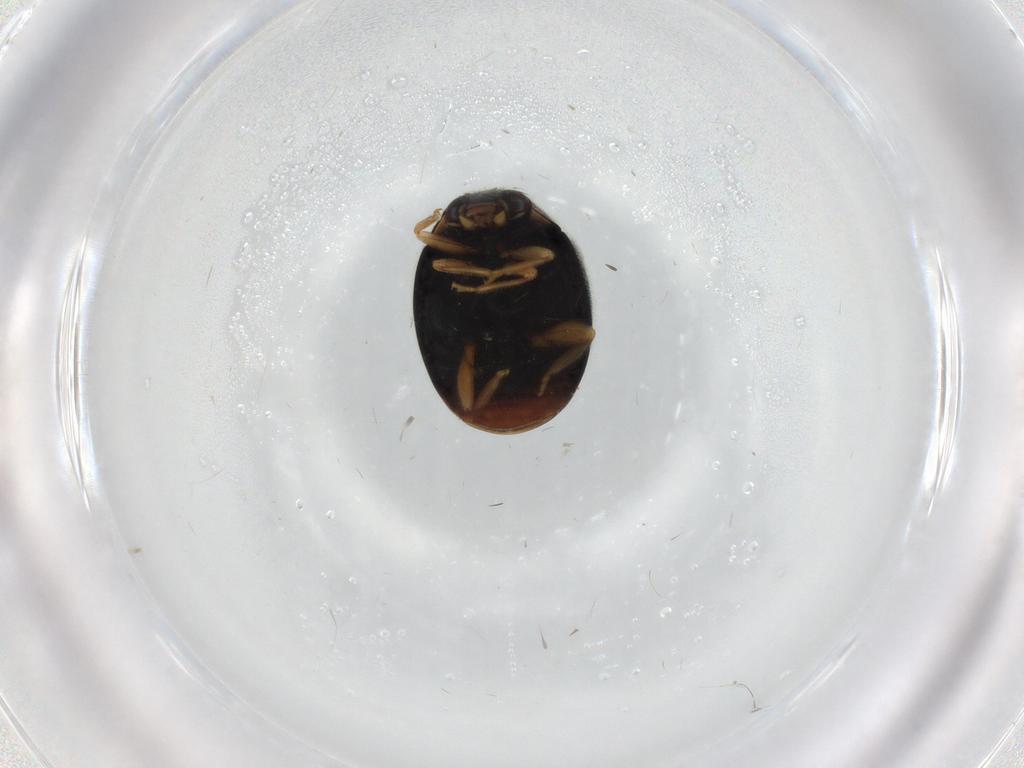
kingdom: Animalia
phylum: Arthropoda
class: Insecta
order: Coleoptera
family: Coccinellidae
